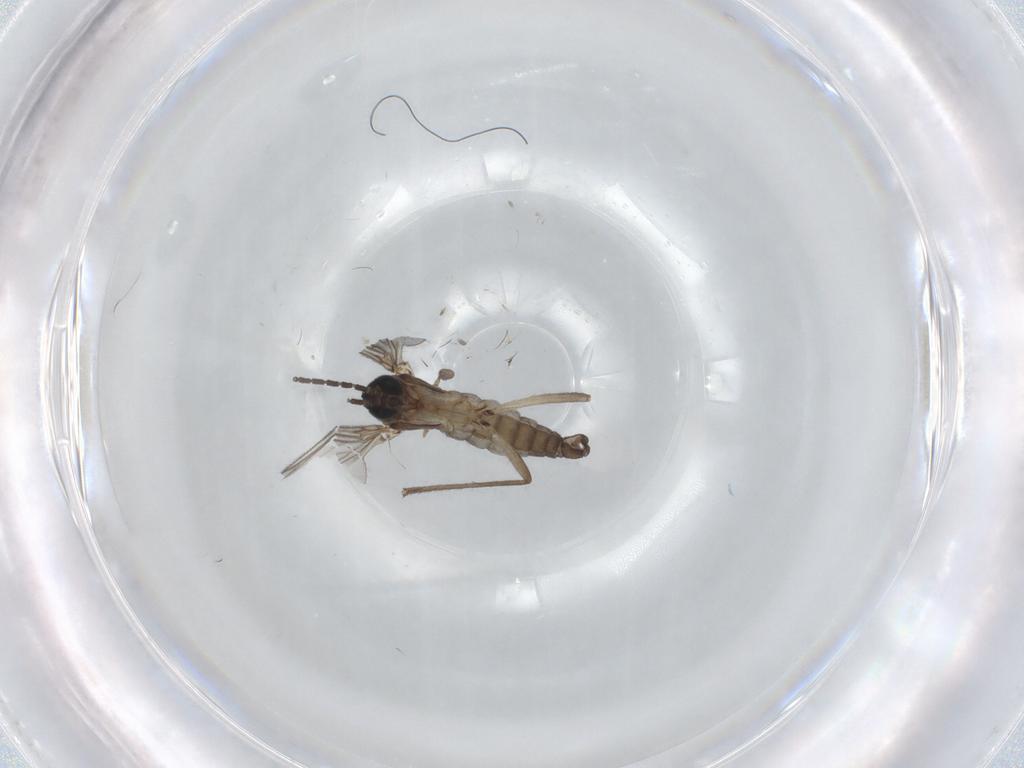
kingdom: Animalia
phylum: Arthropoda
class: Insecta
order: Diptera
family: Sciaridae
